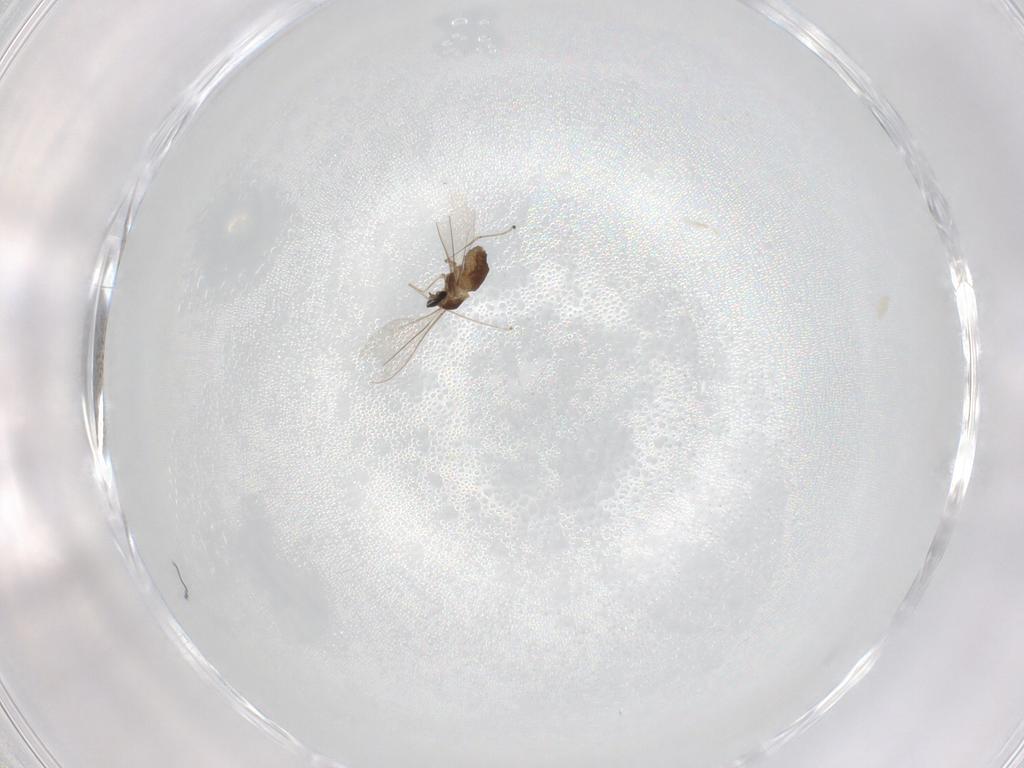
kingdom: Animalia
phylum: Arthropoda
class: Insecta
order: Diptera
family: Cecidomyiidae
